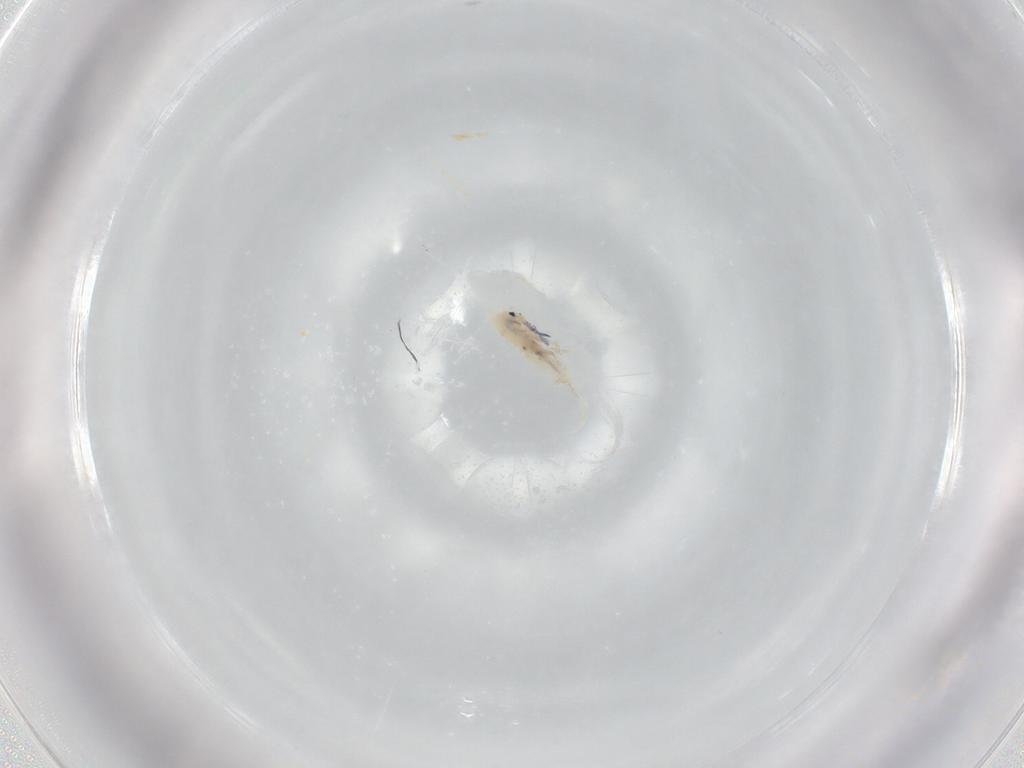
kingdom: Animalia
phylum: Arthropoda
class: Collembola
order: Entomobryomorpha
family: Entomobryidae
